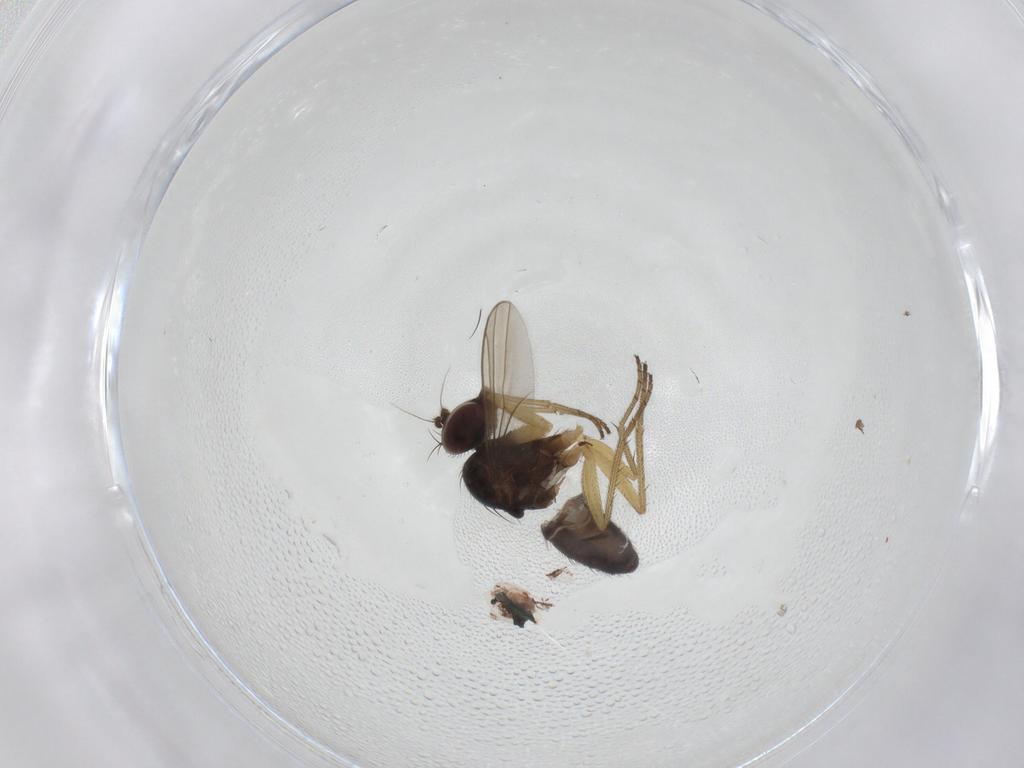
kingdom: Animalia
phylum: Arthropoda
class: Insecta
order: Diptera
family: Dolichopodidae
